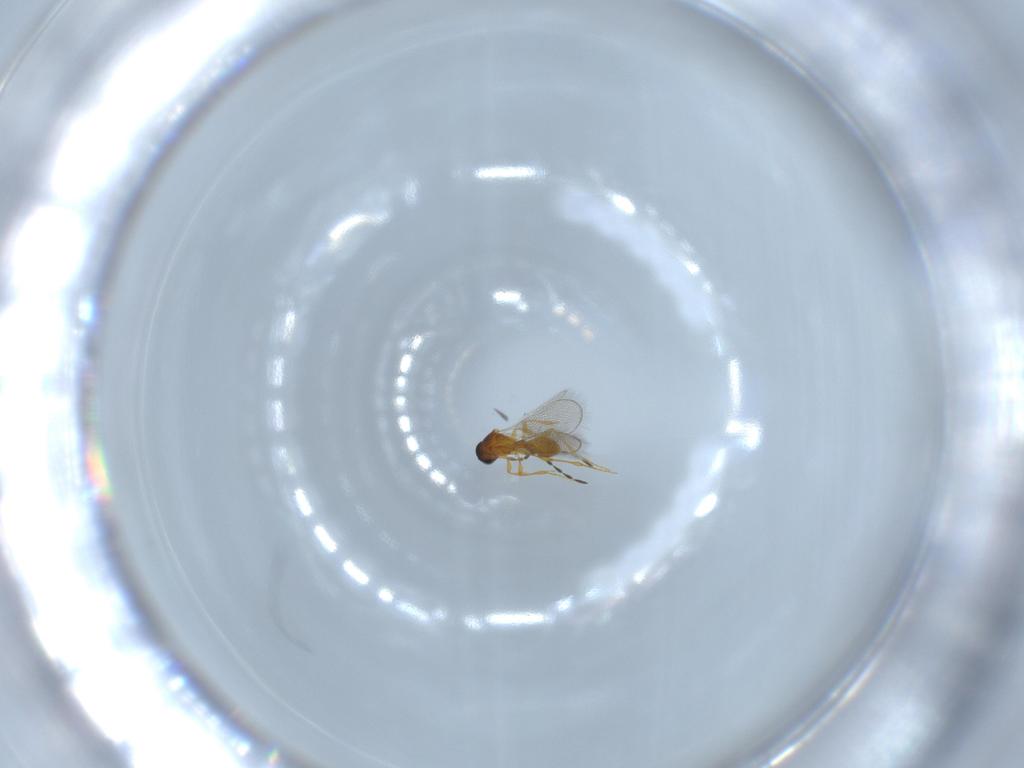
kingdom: Animalia
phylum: Arthropoda
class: Insecta
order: Hymenoptera
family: Platygastridae
